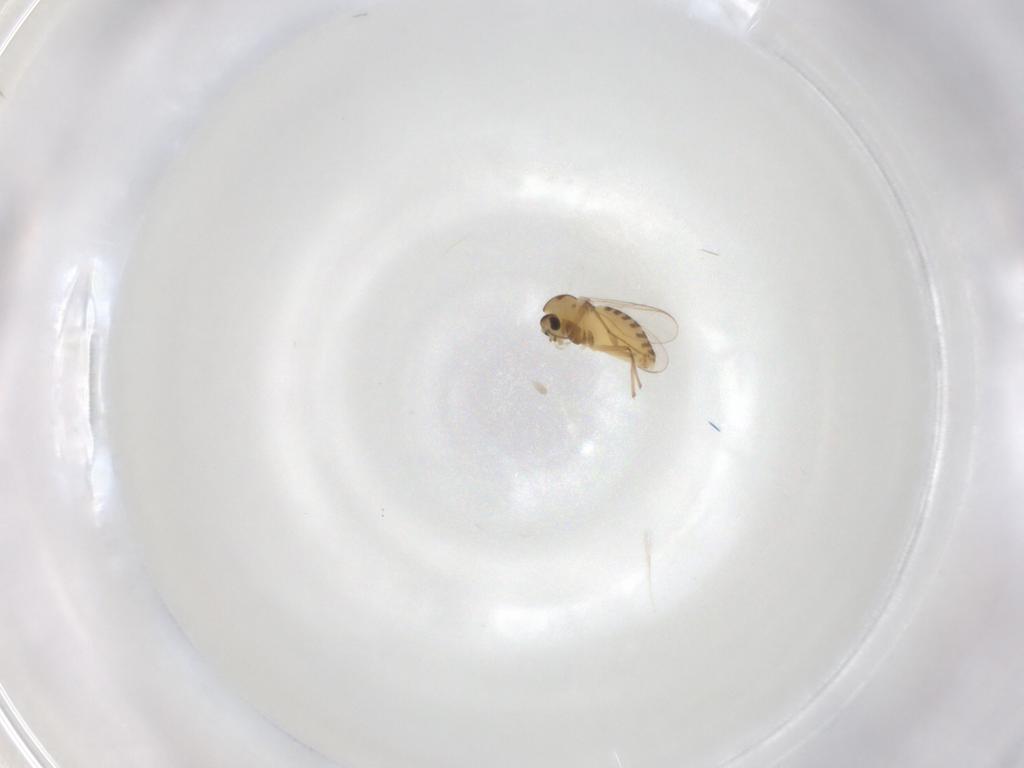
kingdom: Animalia
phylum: Arthropoda
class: Insecta
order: Diptera
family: Chironomidae
